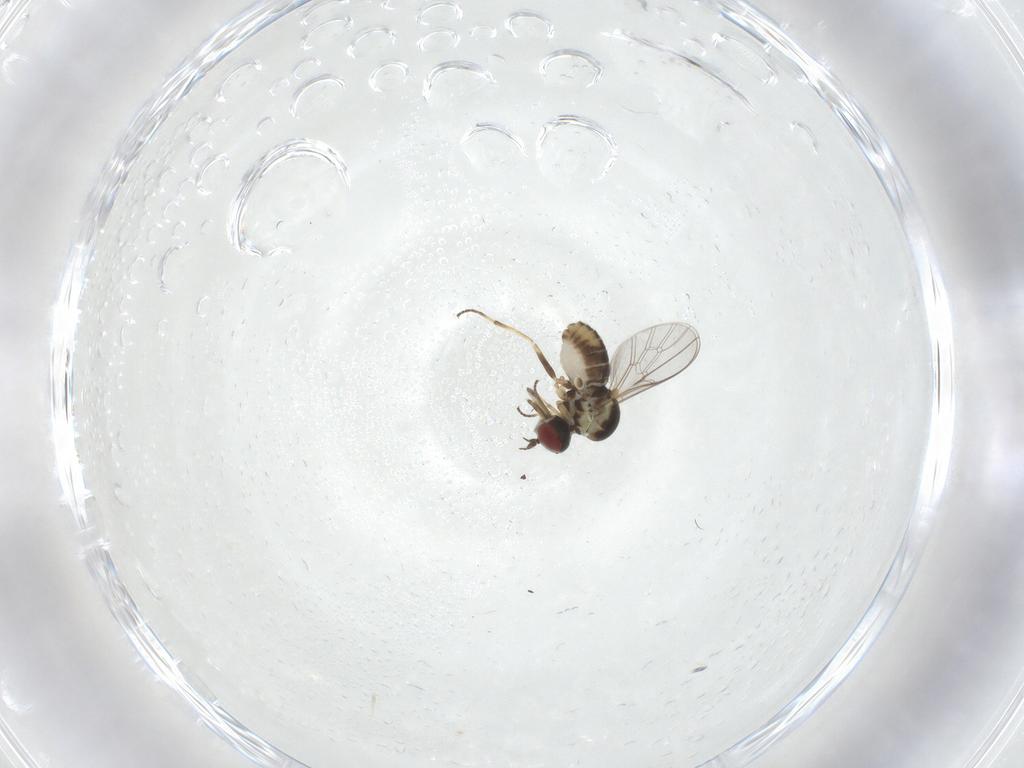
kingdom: Animalia
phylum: Arthropoda
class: Insecta
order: Diptera
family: Mythicomyiidae
